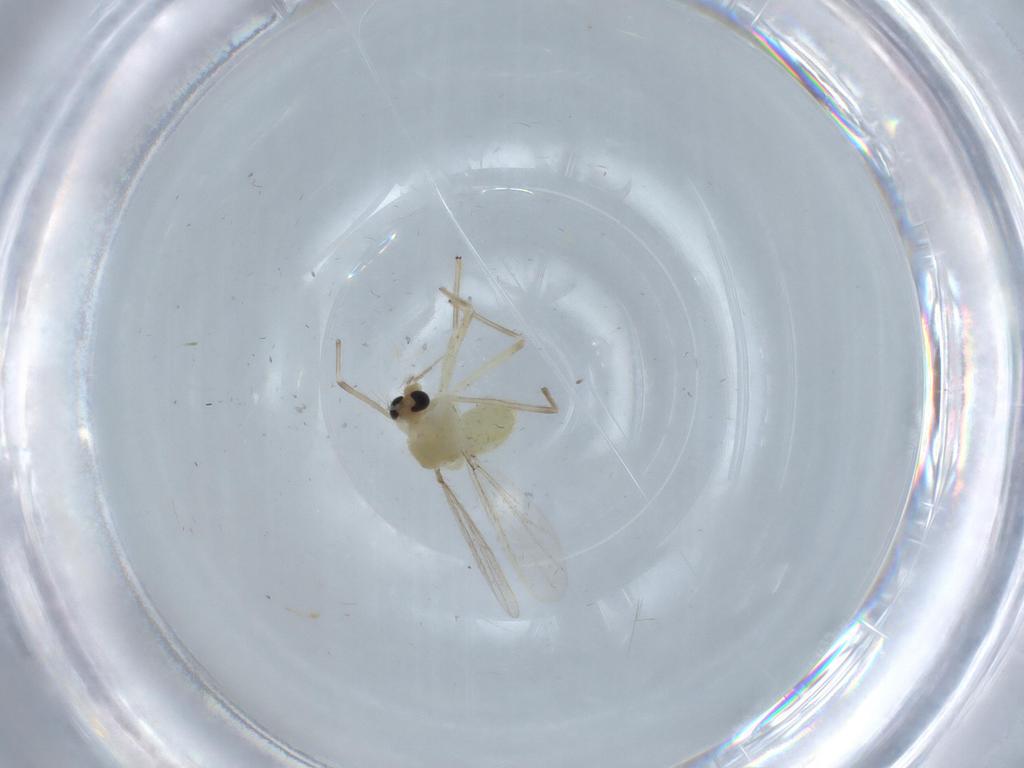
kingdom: Animalia
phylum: Arthropoda
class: Insecta
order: Diptera
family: Chironomidae
